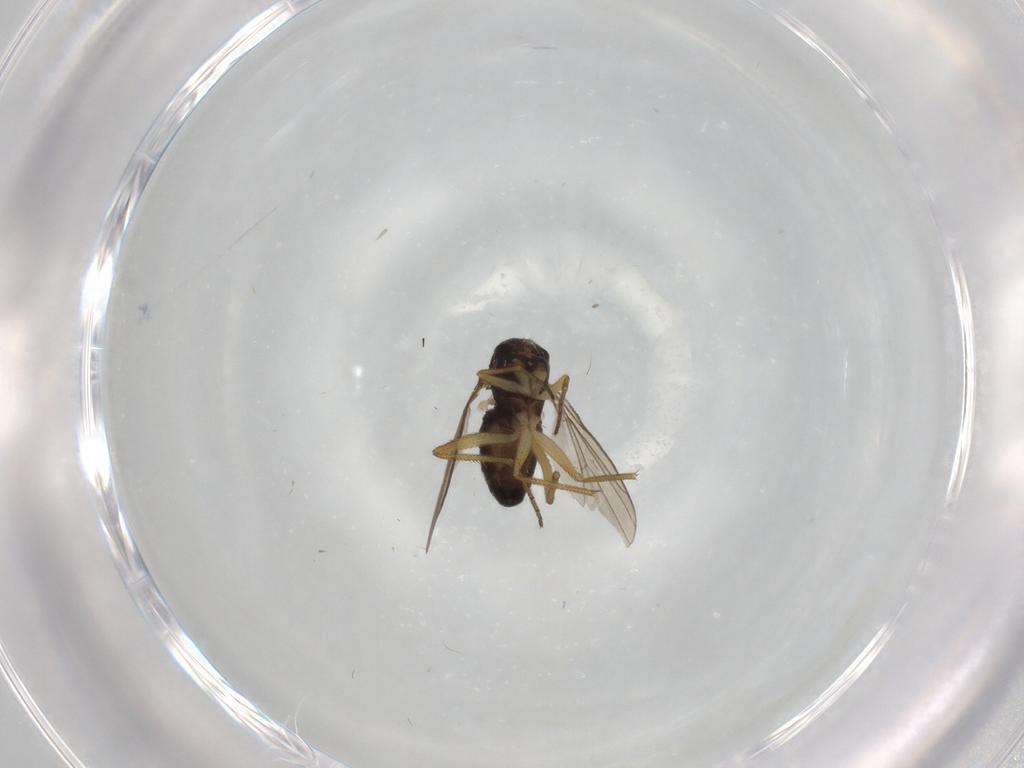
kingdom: Animalia
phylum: Arthropoda
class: Insecta
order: Diptera
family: Dolichopodidae
